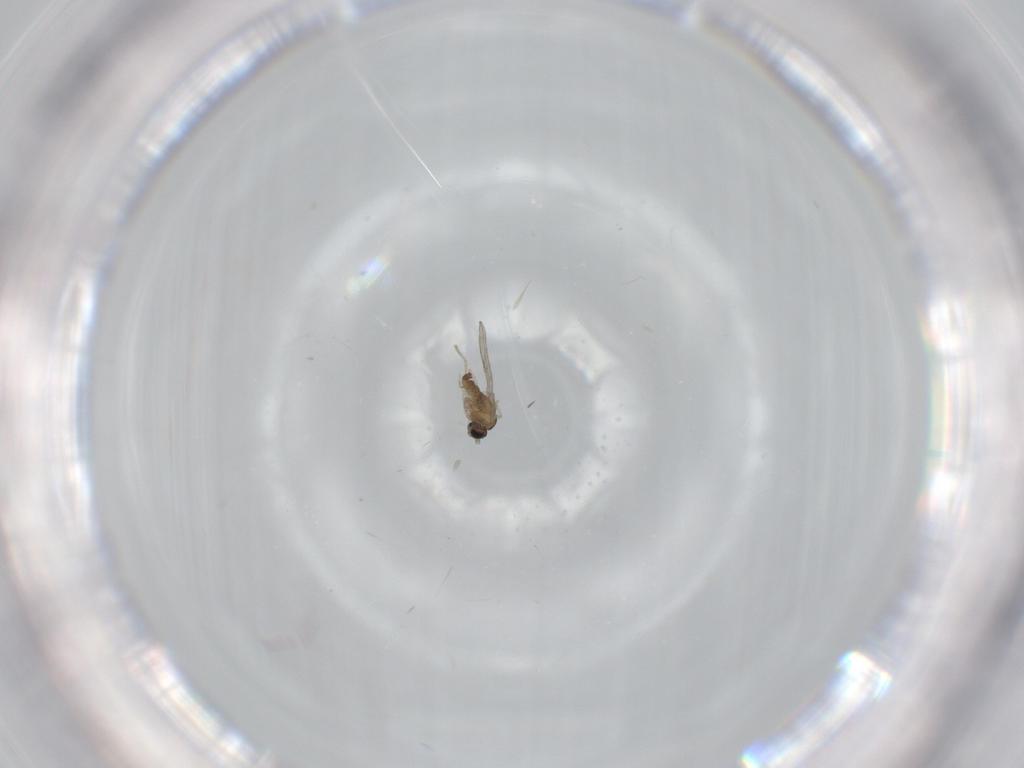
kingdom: Animalia
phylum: Arthropoda
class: Insecta
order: Diptera
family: Cecidomyiidae
